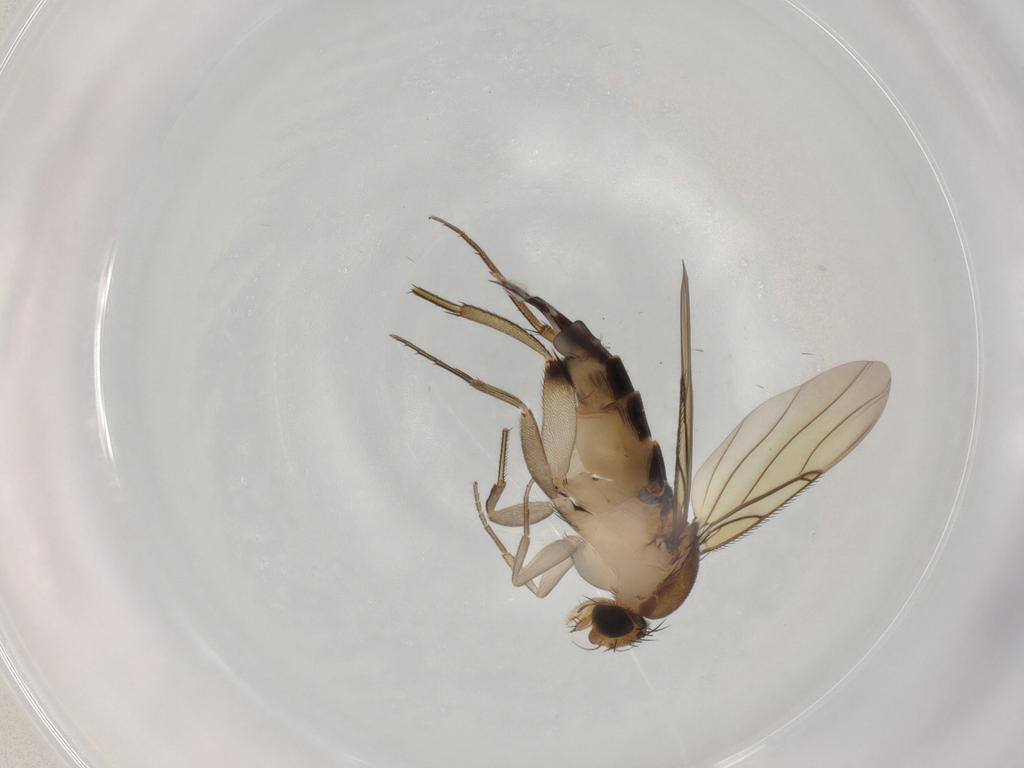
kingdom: Animalia
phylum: Arthropoda
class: Insecta
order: Diptera
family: Phoridae
